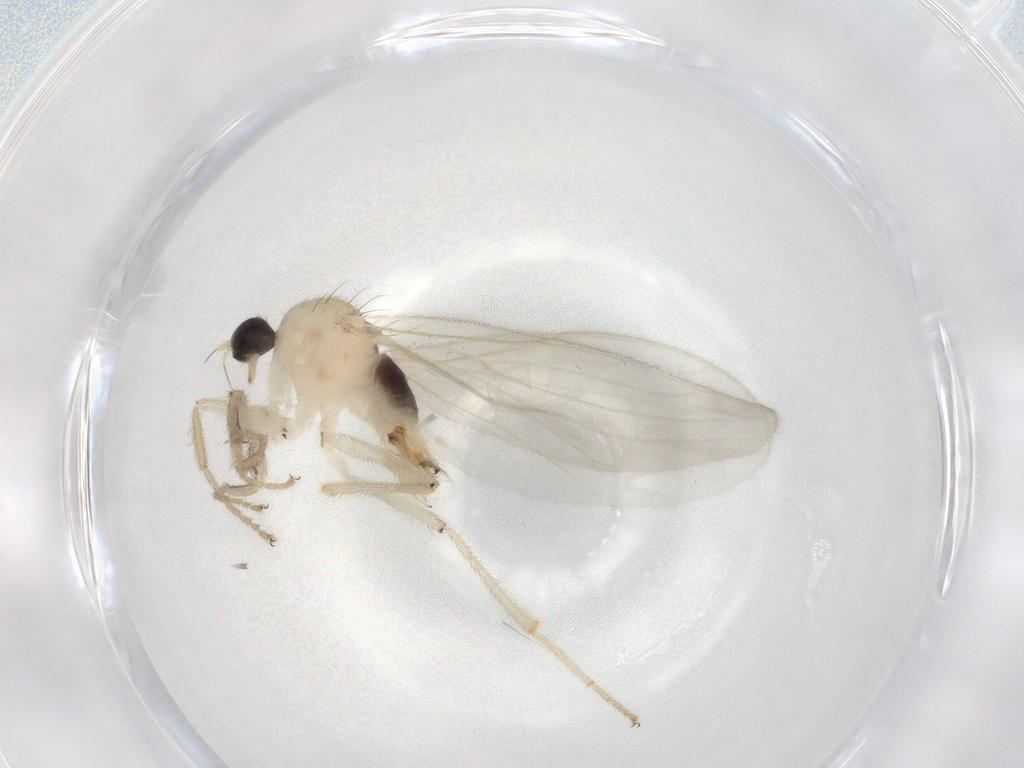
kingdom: Animalia
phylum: Arthropoda
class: Insecta
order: Diptera
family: Hybotidae
